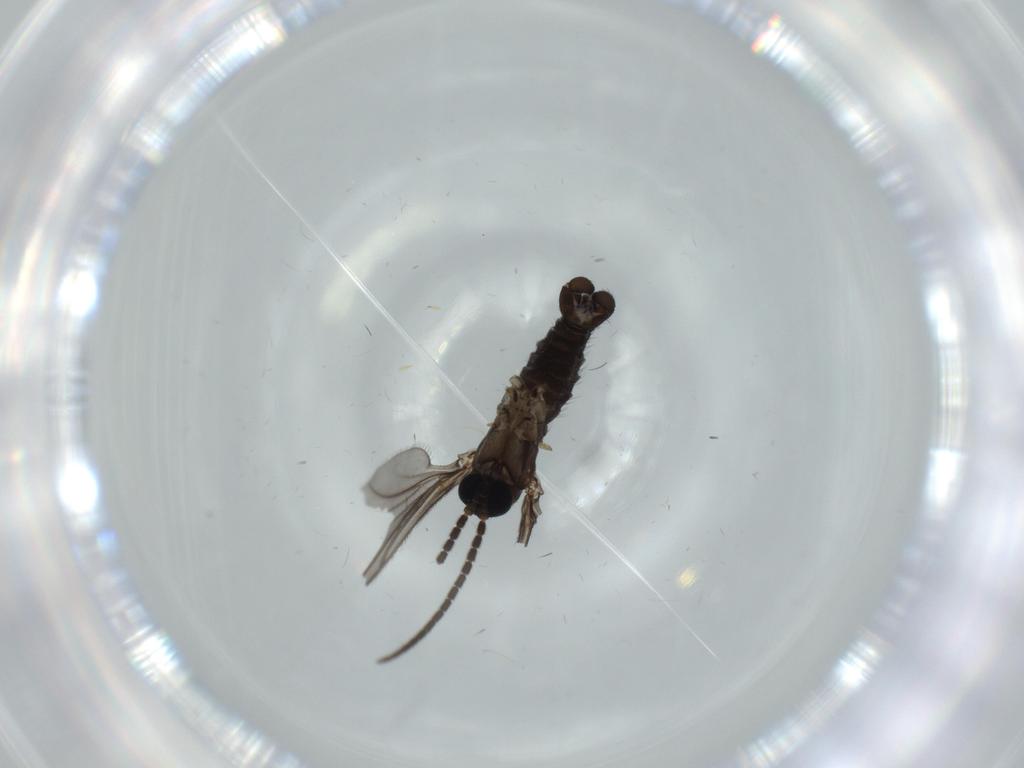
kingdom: Animalia
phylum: Arthropoda
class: Insecta
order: Diptera
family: Sciaridae
